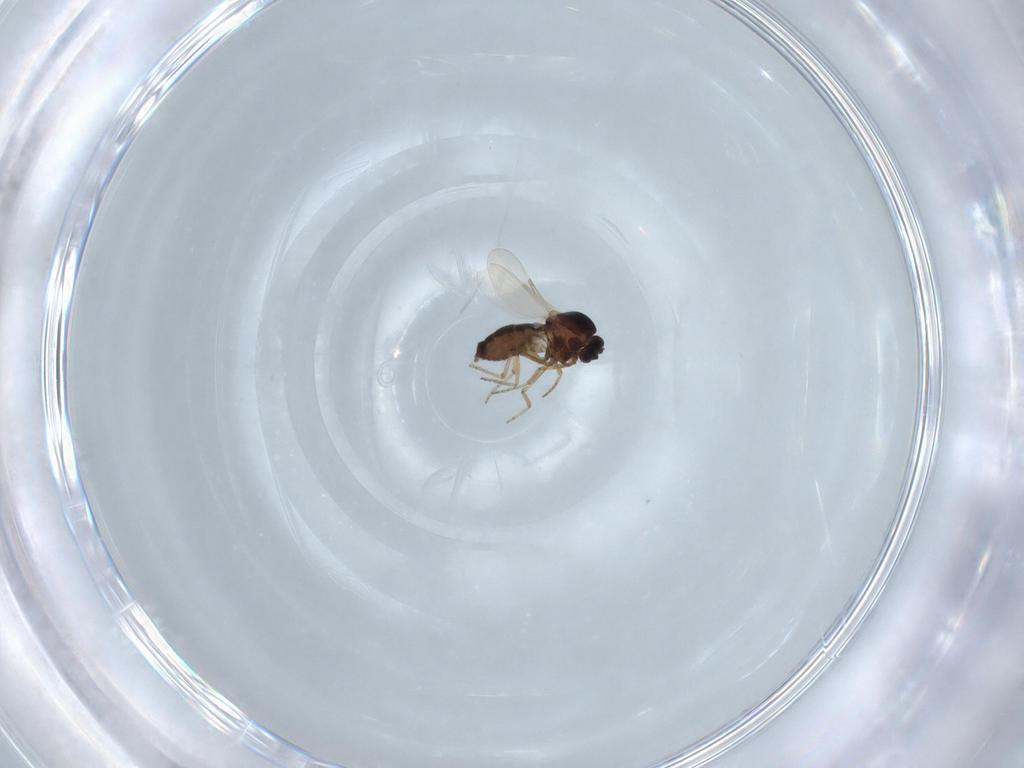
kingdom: Animalia
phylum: Arthropoda
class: Insecta
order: Diptera
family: Ceratopogonidae
